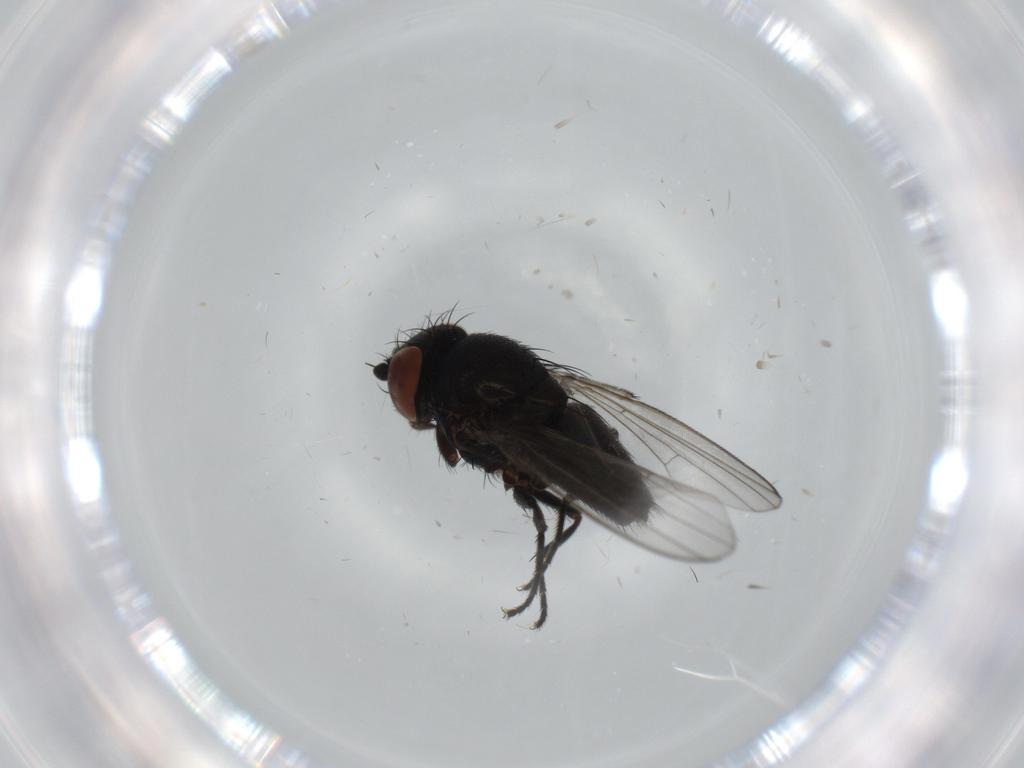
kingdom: Animalia
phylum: Arthropoda
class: Insecta
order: Diptera
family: Milichiidae
